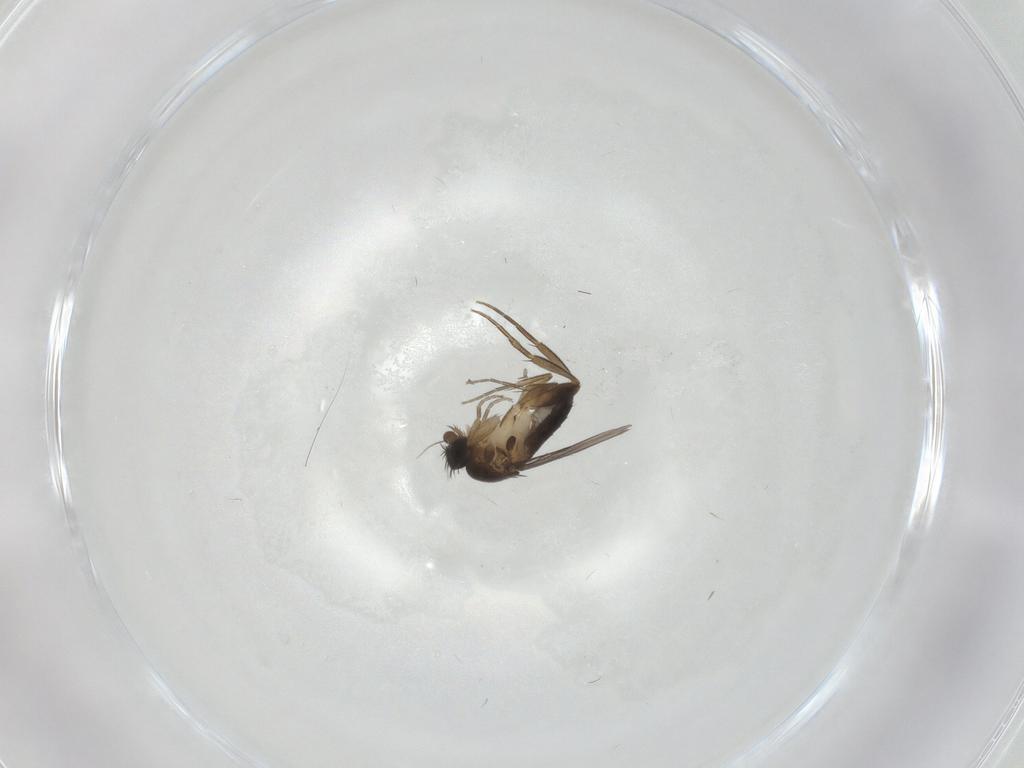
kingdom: Animalia
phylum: Arthropoda
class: Insecta
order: Diptera
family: Phoridae
